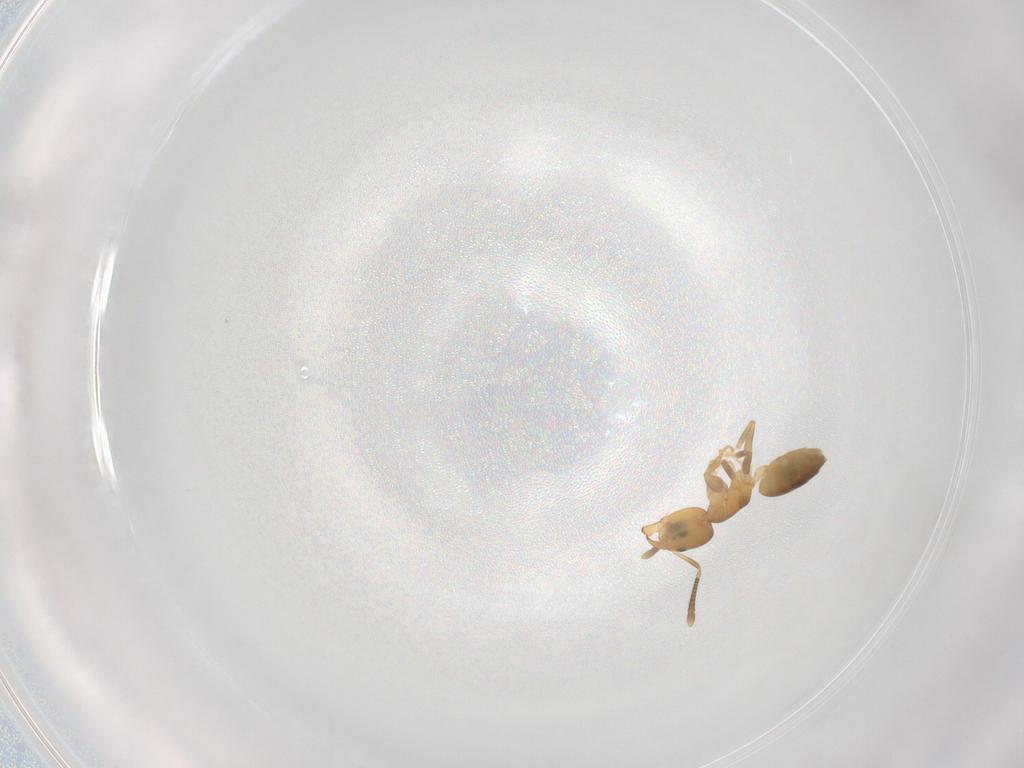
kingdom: Animalia
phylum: Arthropoda
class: Insecta
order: Hymenoptera
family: Formicidae
